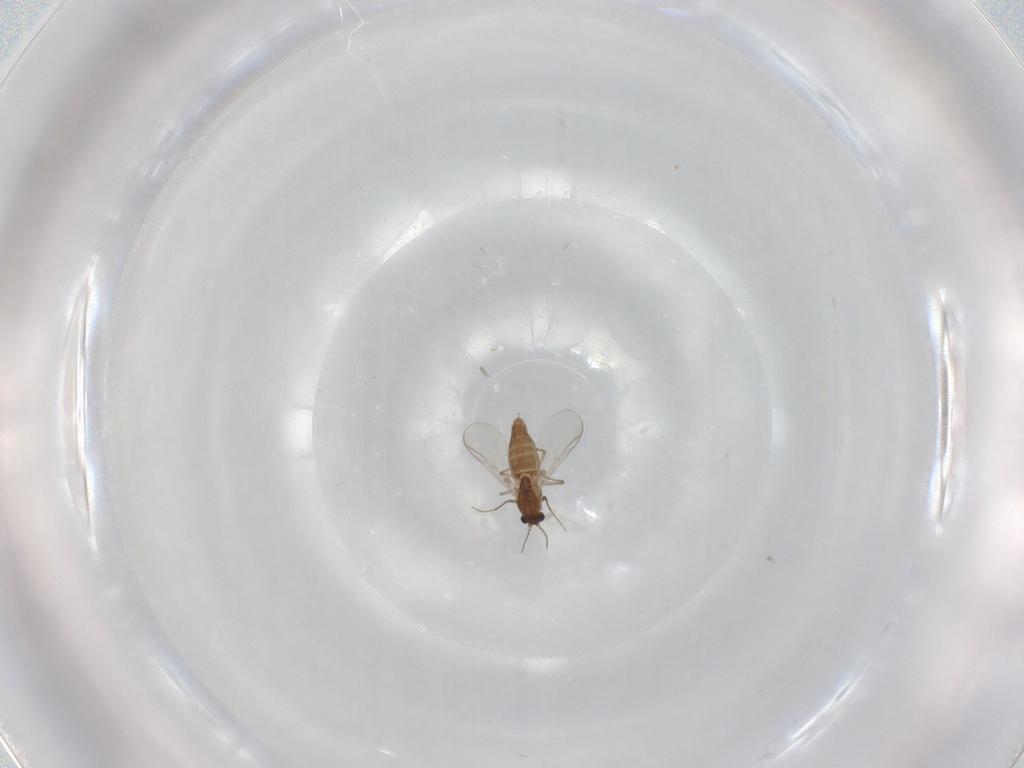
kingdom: Animalia
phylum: Arthropoda
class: Insecta
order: Diptera
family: Chironomidae
